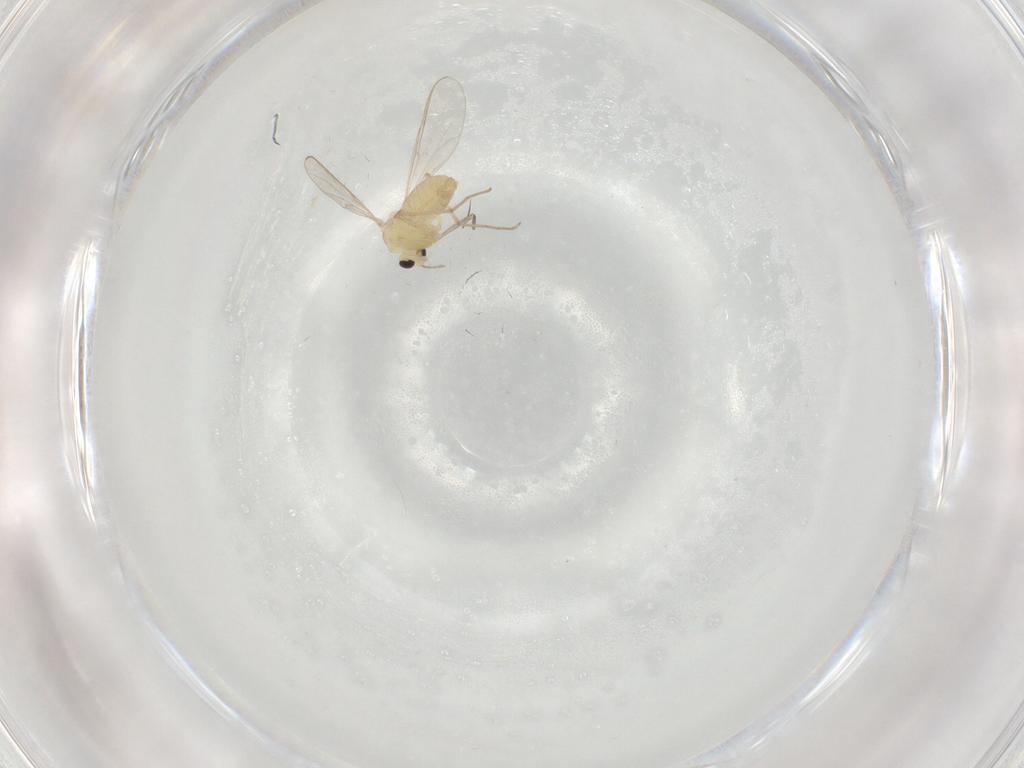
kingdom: Animalia
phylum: Arthropoda
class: Insecta
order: Diptera
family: Chironomidae
